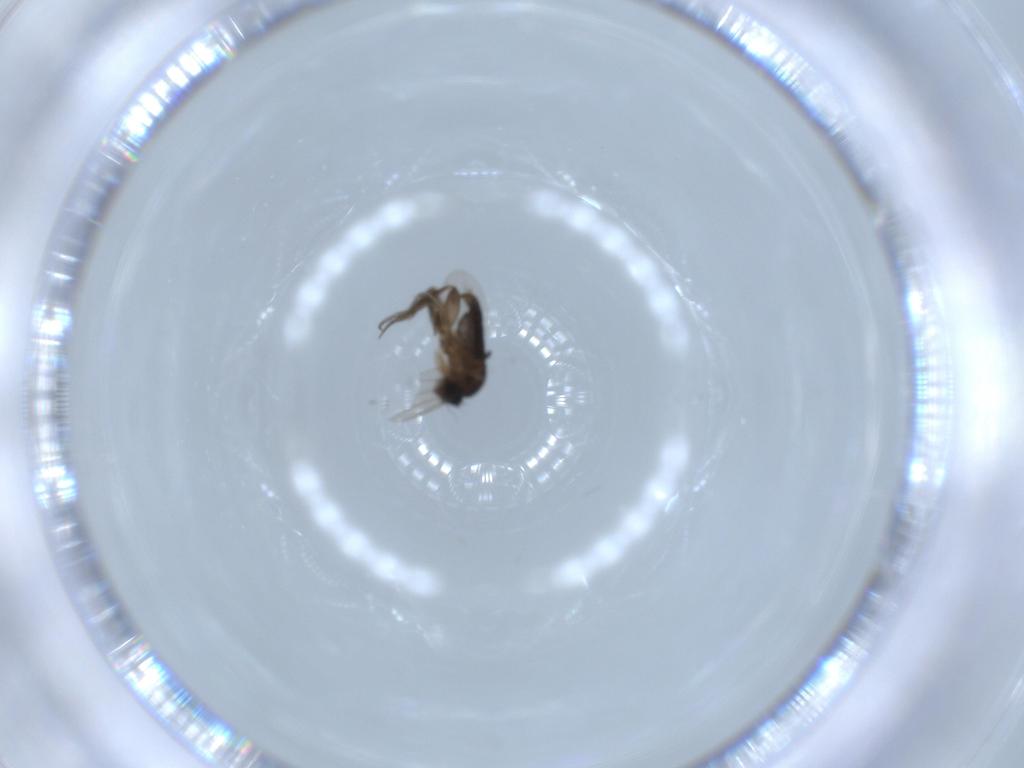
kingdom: Animalia
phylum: Arthropoda
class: Insecta
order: Diptera
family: Phoridae
